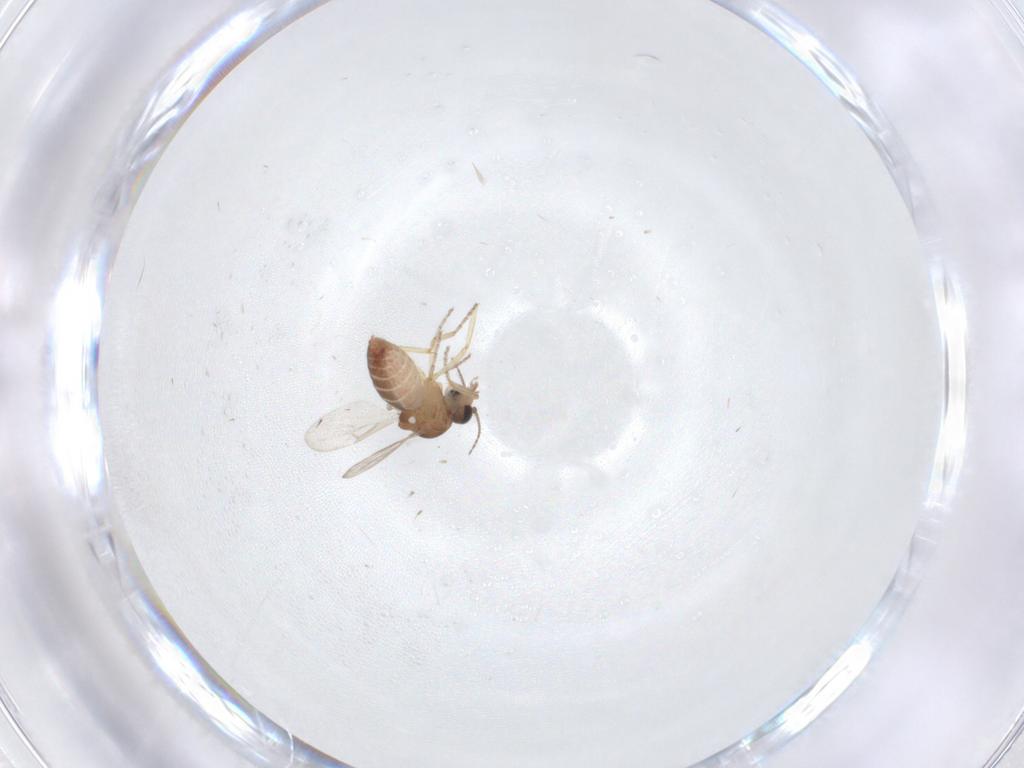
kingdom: Animalia
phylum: Arthropoda
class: Insecta
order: Diptera
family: Ceratopogonidae
